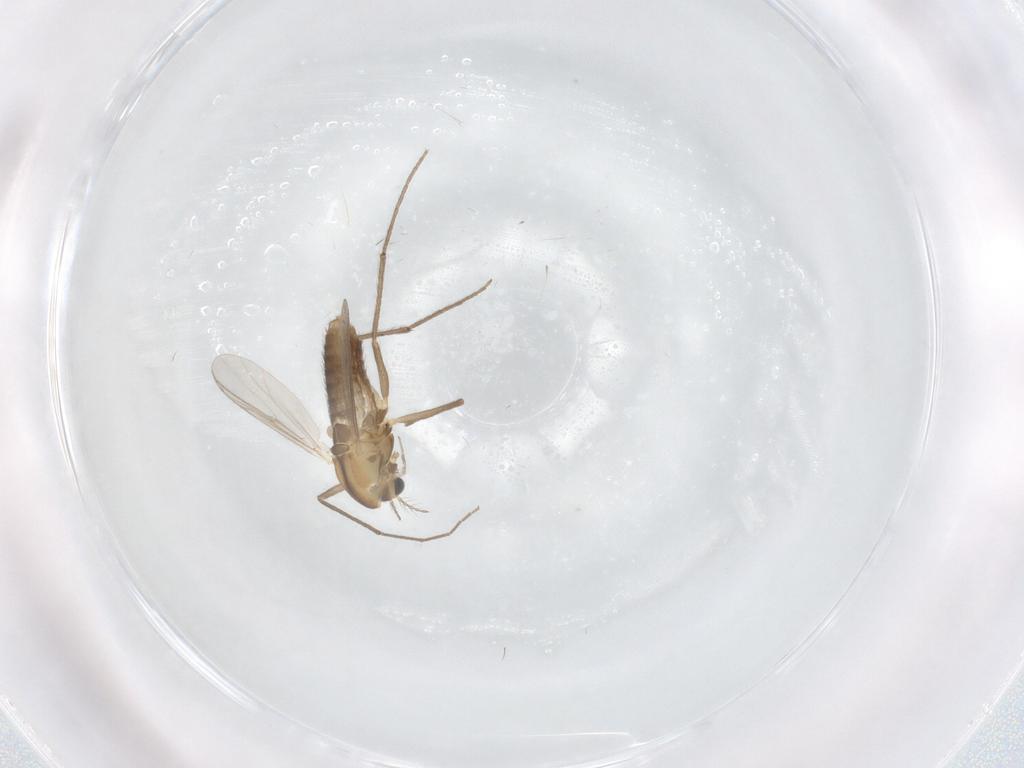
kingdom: Animalia
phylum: Arthropoda
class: Insecta
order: Diptera
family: Chironomidae
